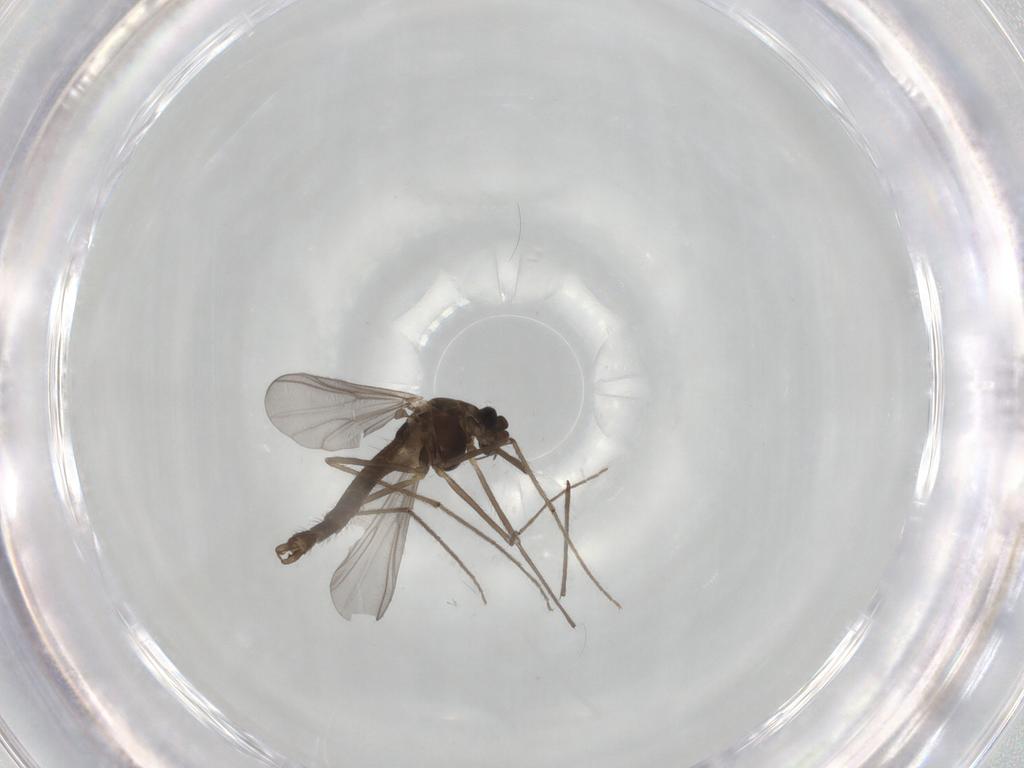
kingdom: Animalia
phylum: Arthropoda
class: Insecta
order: Diptera
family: Chironomidae
